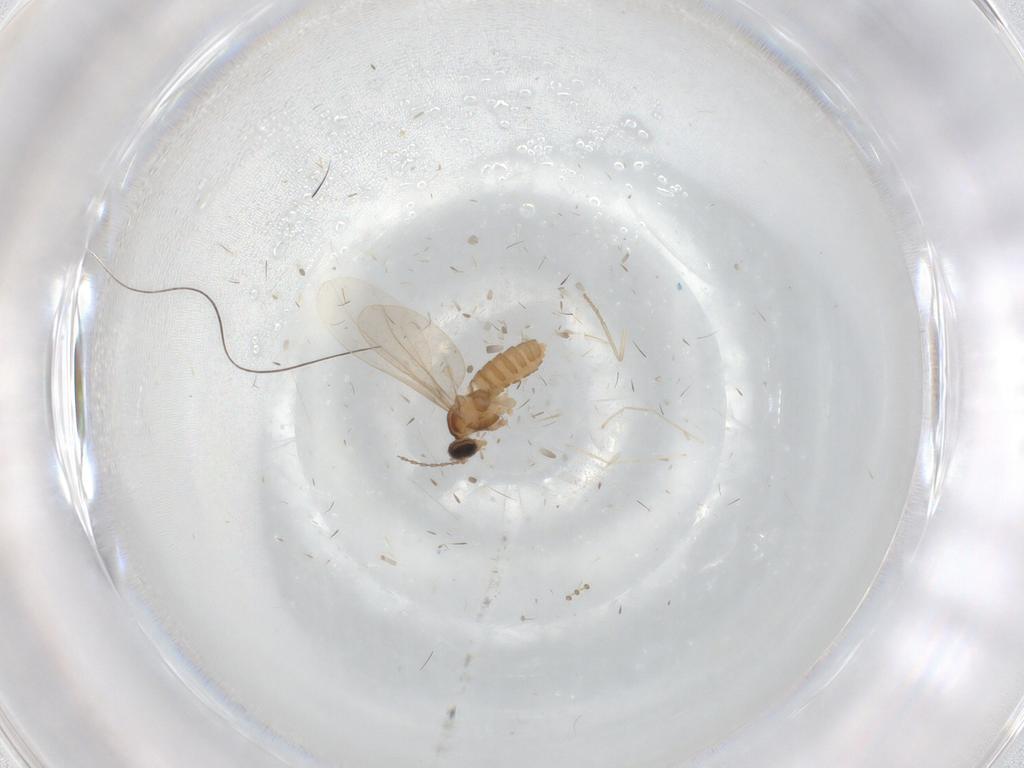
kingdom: Animalia
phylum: Arthropoda
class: Insecta
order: Diptera
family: Cecidomyiidae
